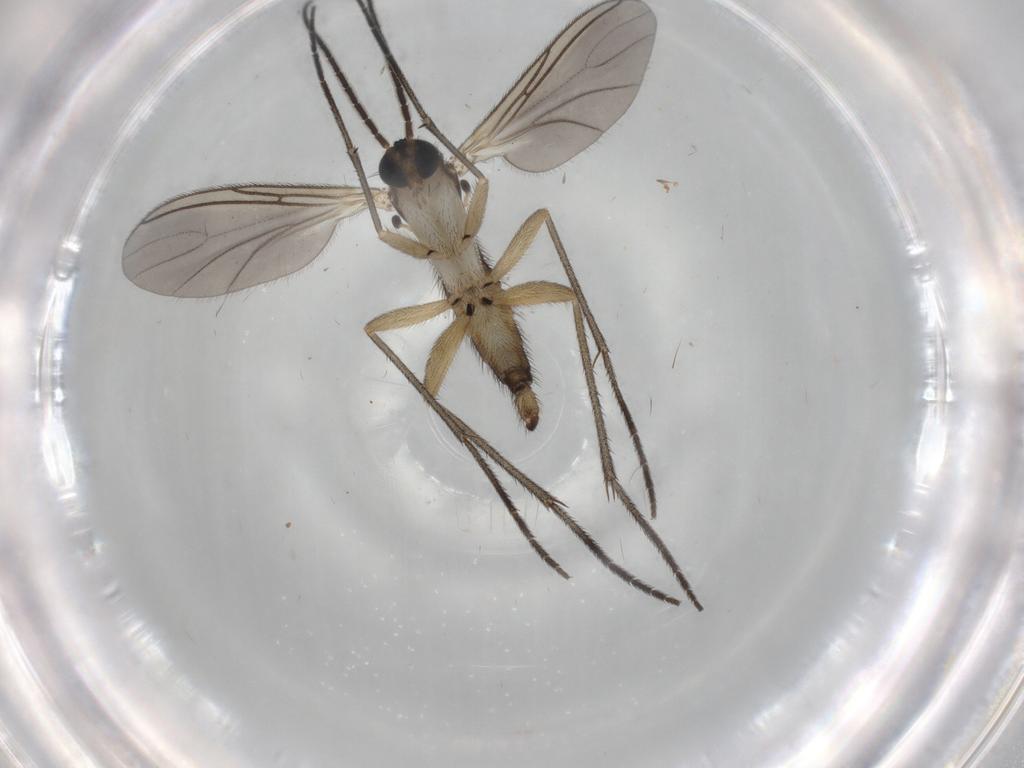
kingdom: Animalia
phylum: Arthropoda
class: Insecta
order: Diptera
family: Sciaridae
